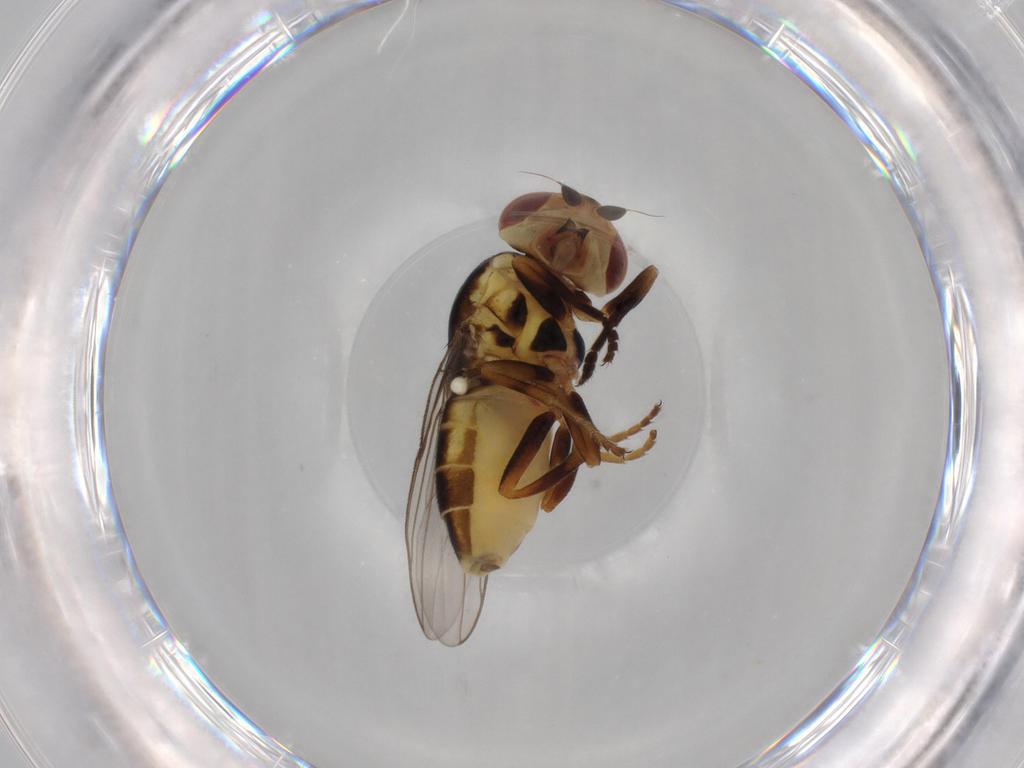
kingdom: Animalia
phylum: Arthropoda
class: Insecta
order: Diptera
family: Chloropidae
